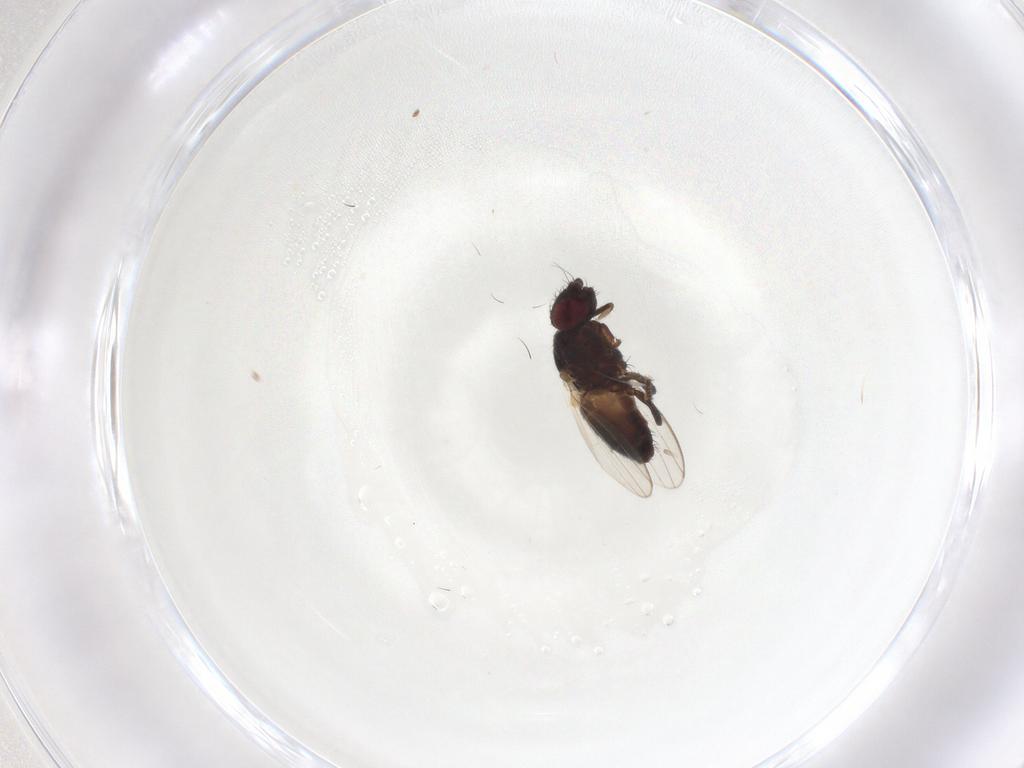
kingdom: Animalia
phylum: Arthropoda
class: Insecta
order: Diptera
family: Milichiidae
